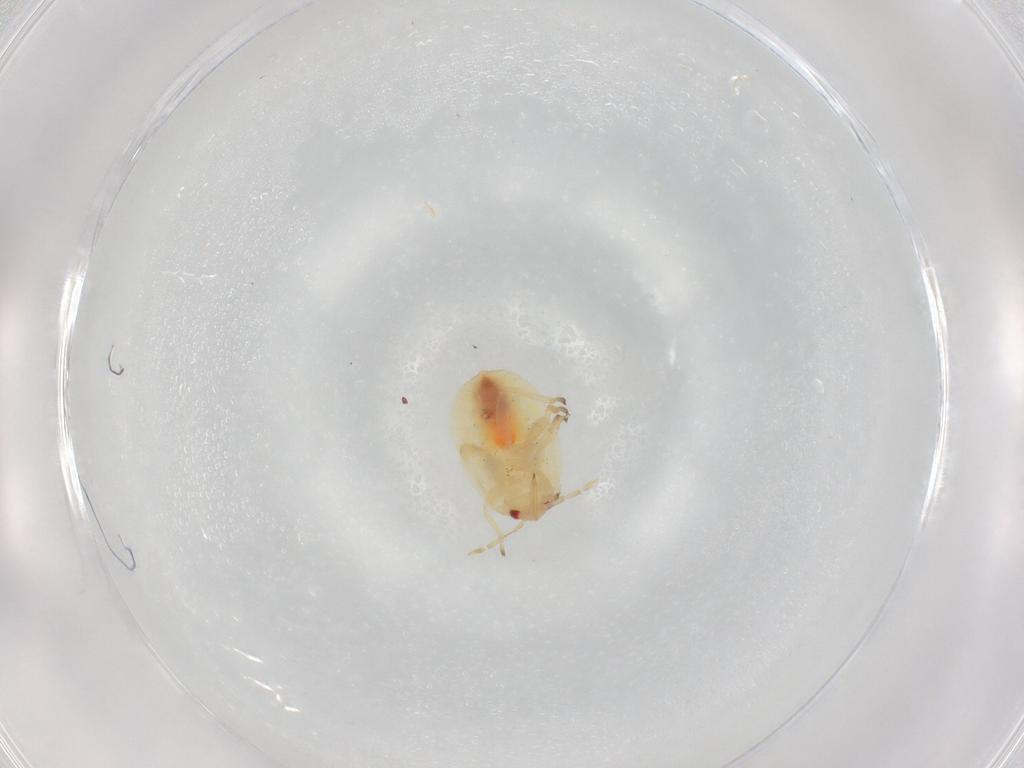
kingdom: Animalia
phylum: Arthropoda
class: Insecta
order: Hemiptera
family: Anthocoridae
